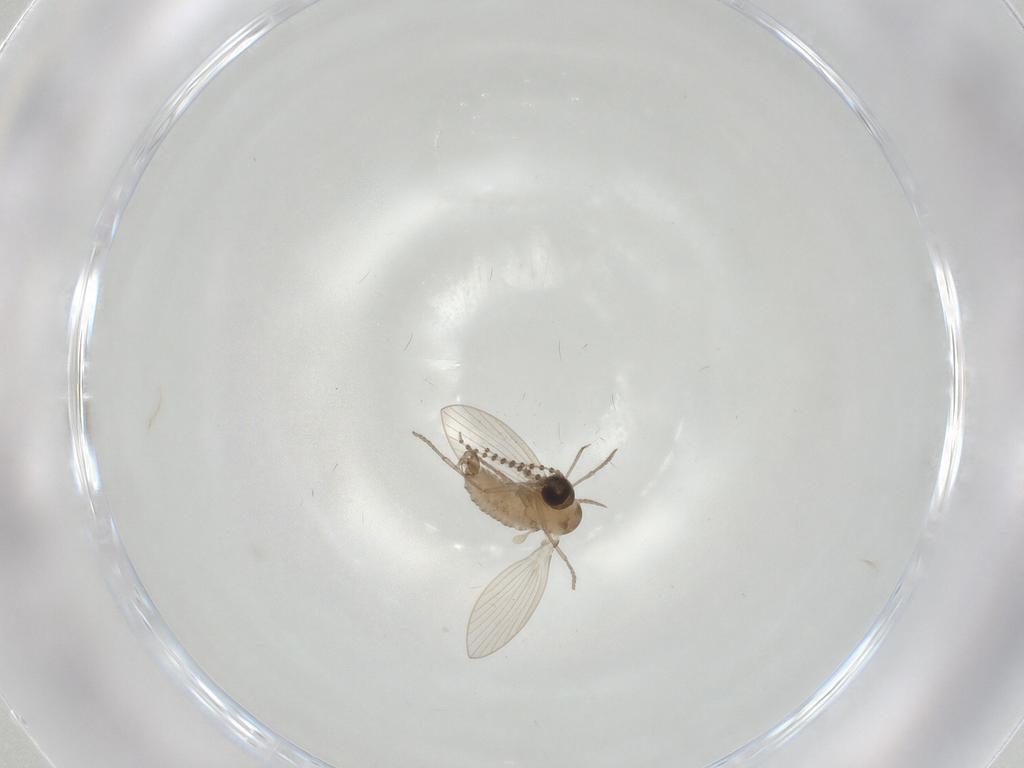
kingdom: Animalia
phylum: Arthropoda
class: Insecta
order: Diptera
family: Psychodidae
